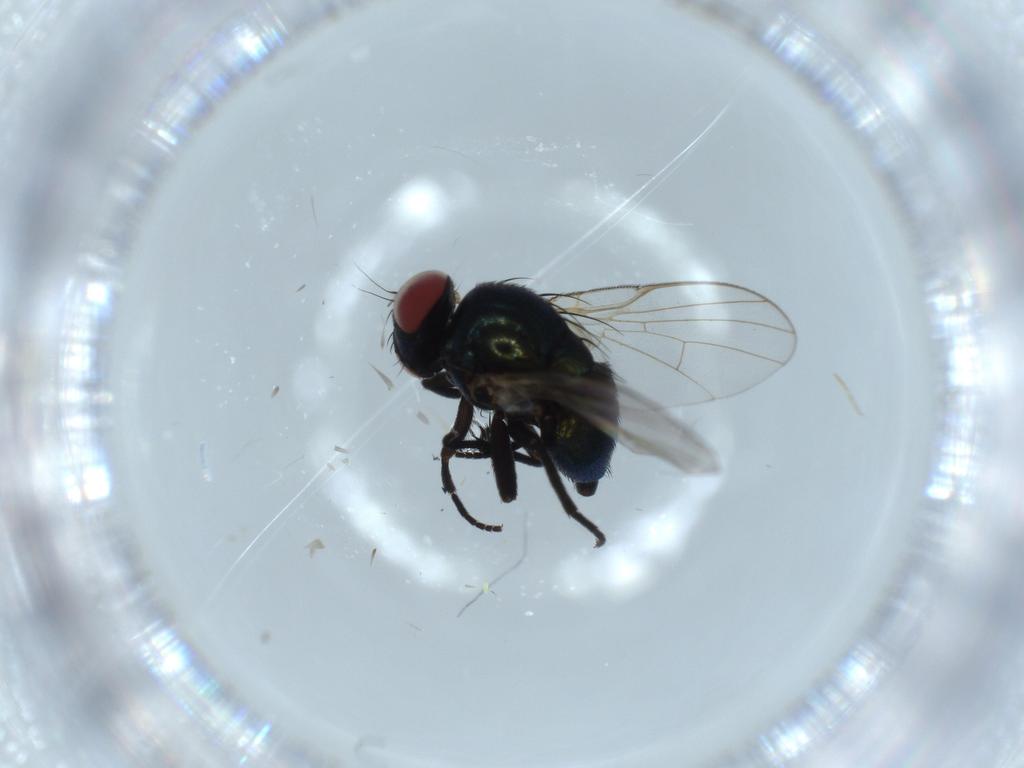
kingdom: Animalia
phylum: Arthropoda
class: Insecta
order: Diptera
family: Agromyzidae
